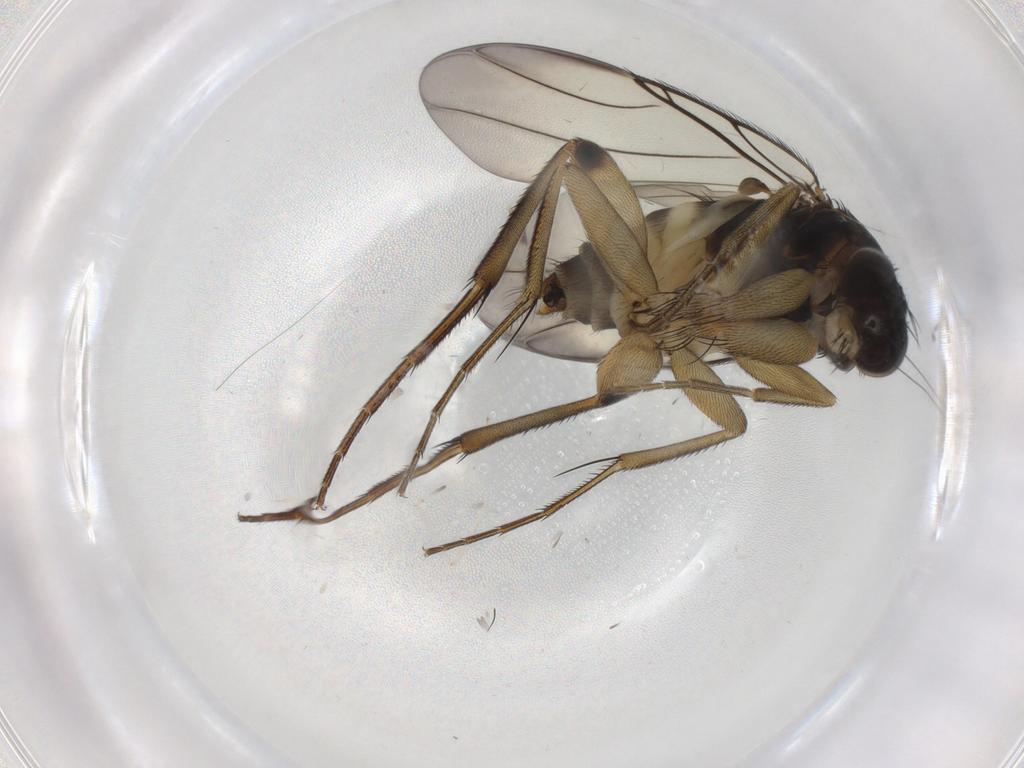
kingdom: Animalia
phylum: Arthropoda
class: Insecta
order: Diptera
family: Phoridae
